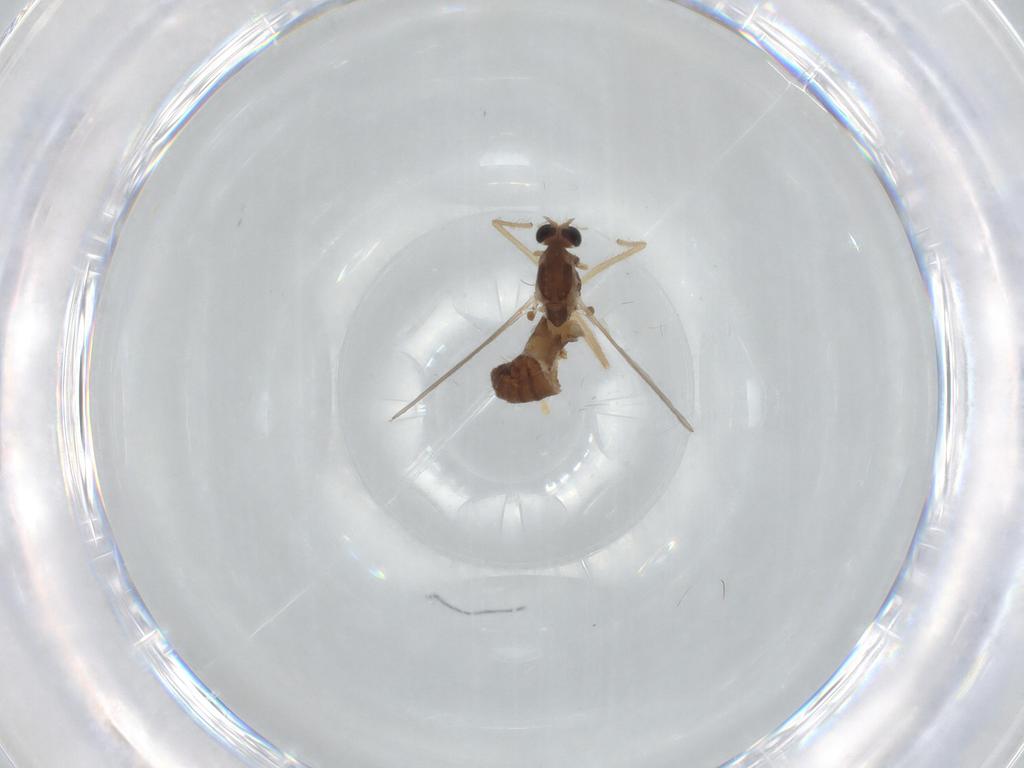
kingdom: Animalia
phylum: Arthropoda
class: Insecta
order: Diptera
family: Chironomidae
